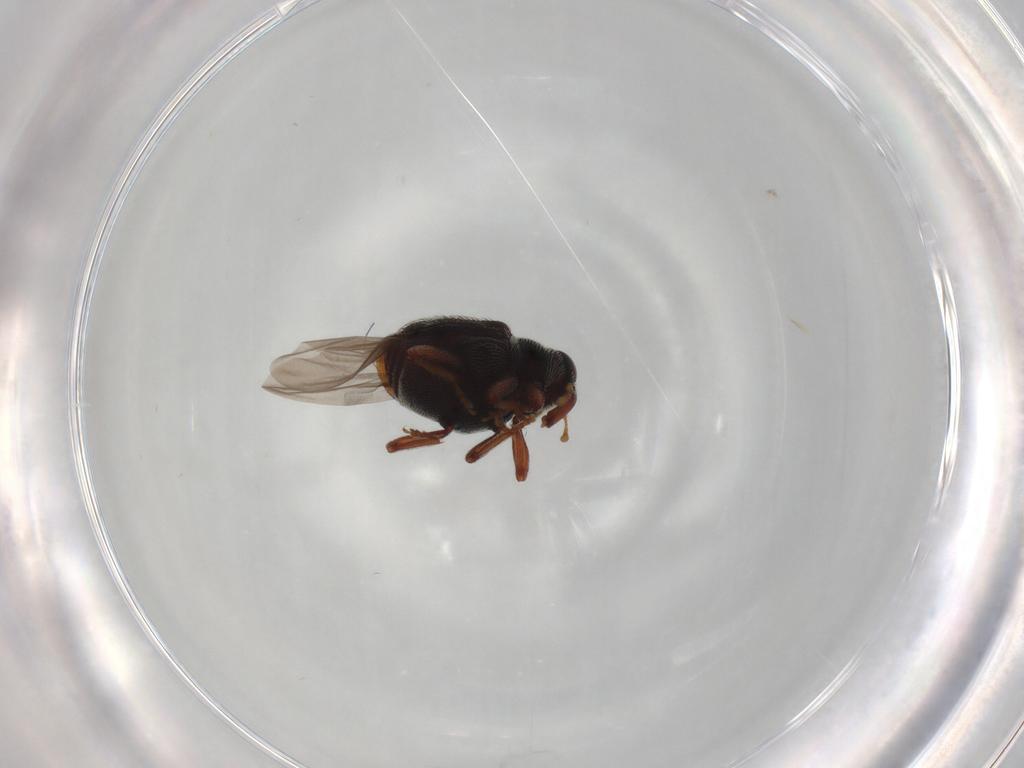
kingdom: Animalia
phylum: Arthropoda
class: Insecta
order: Coleoptera
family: Curculionidae
